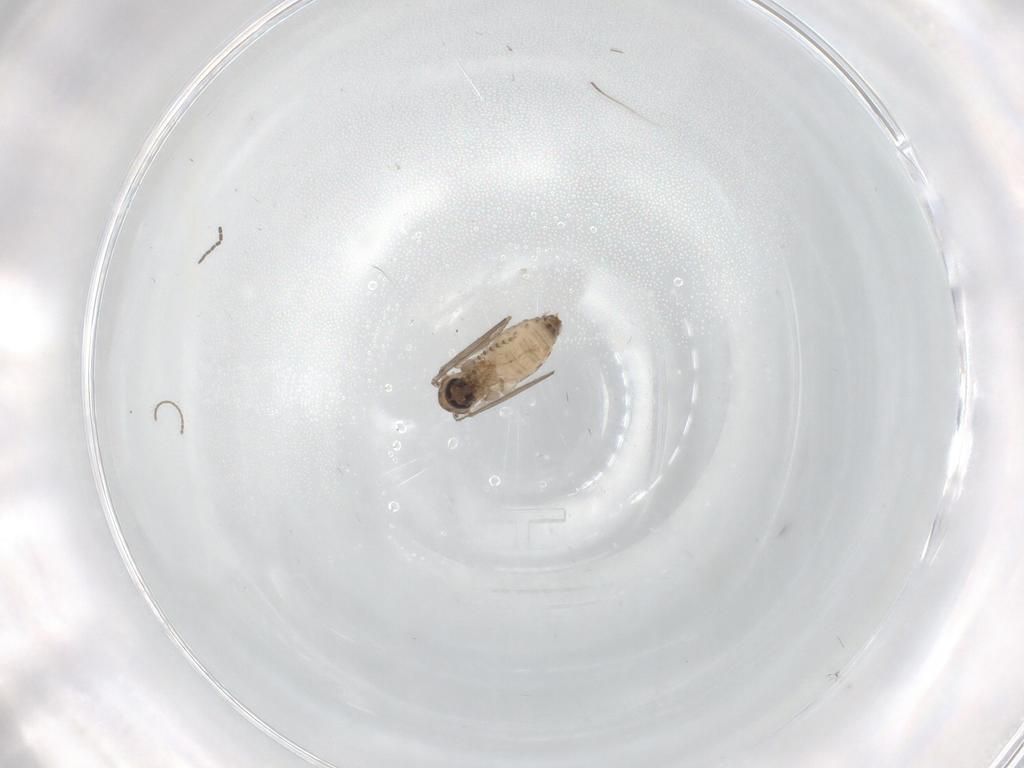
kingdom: Animalia
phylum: Arthropoda
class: Insecta
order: Diptera
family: Psychodidae
